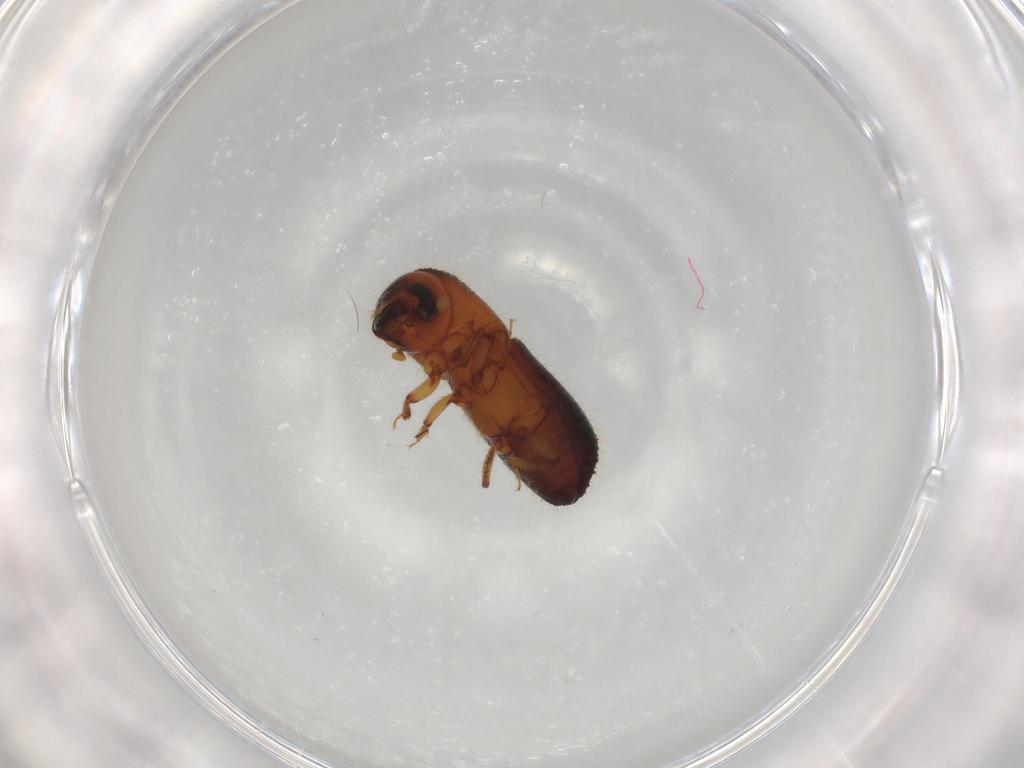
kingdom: Animalia
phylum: Arthropoda
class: Insecta
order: Coleoptera
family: Curculionidae
